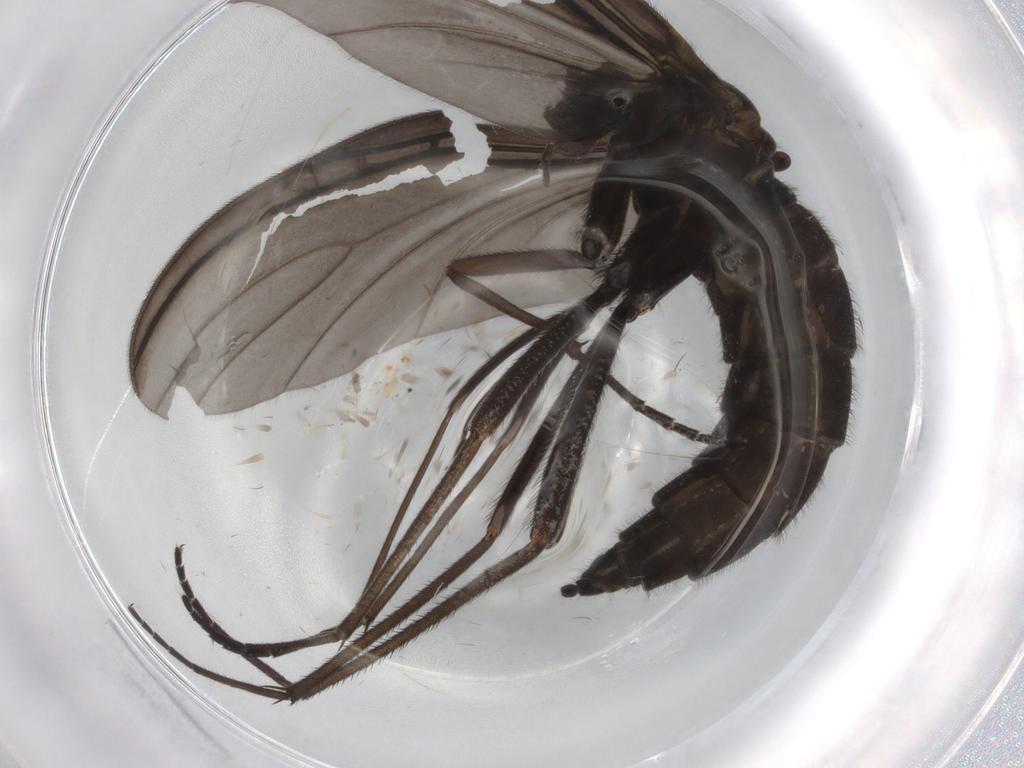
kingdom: Animalia
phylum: Arthropoda
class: Insecta
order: Diptera
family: Sciaridae
